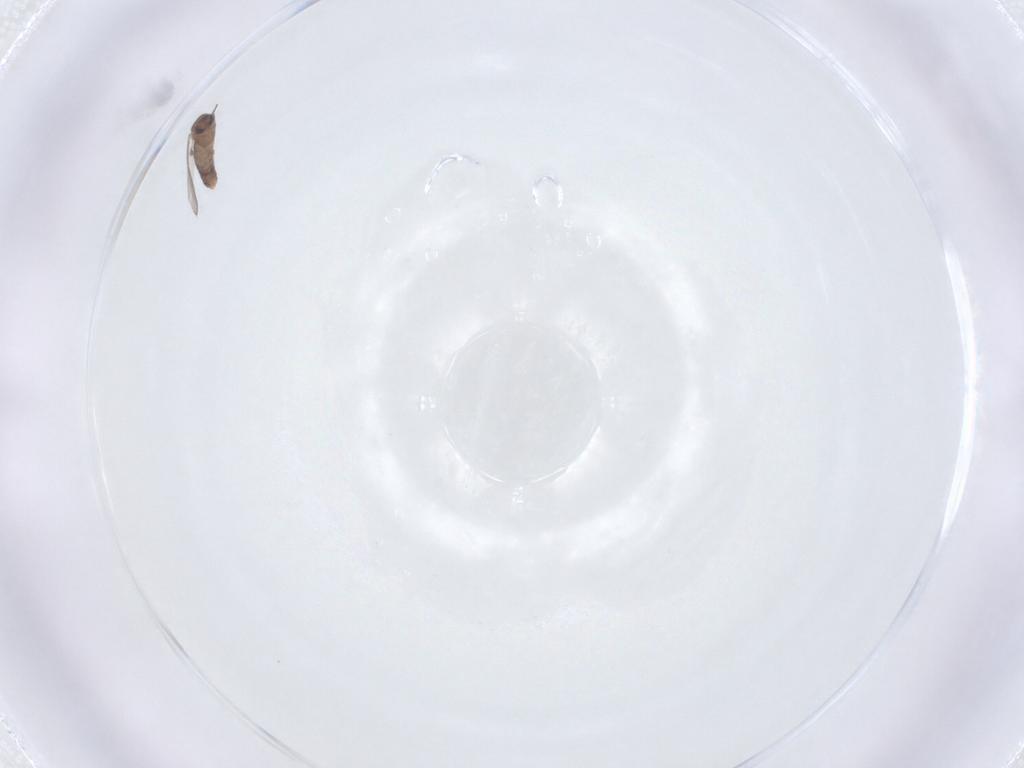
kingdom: Animalia
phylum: Arthropoda
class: Insecta
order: Diptera
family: Chironomidae
